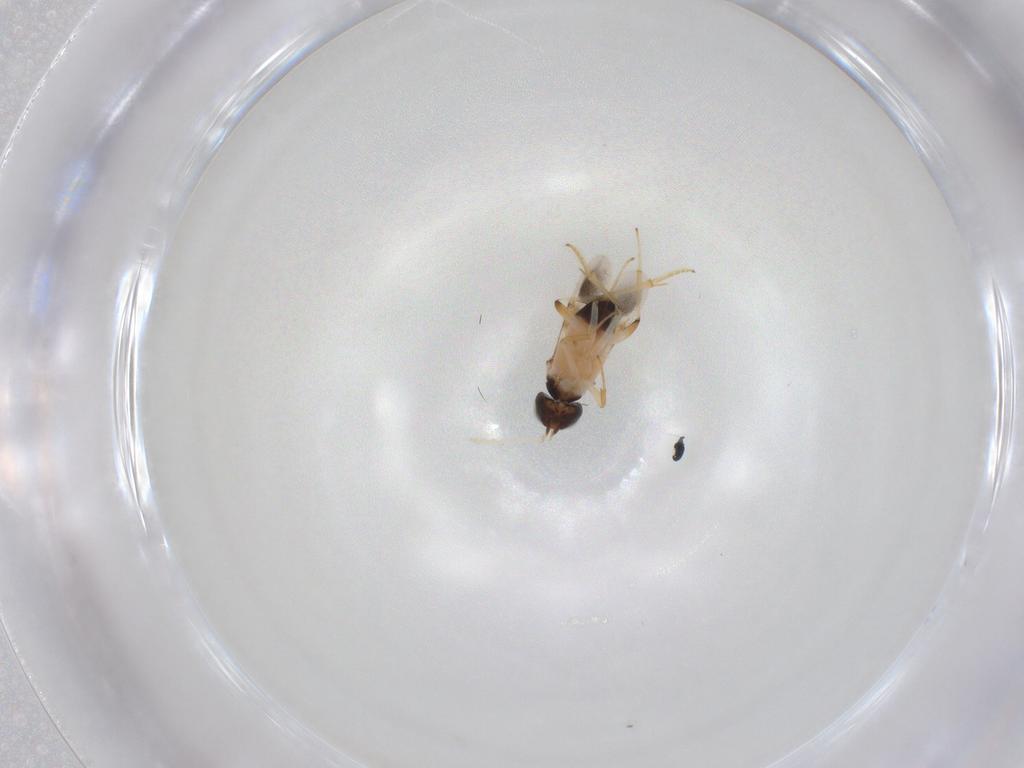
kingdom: Animalia
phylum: Arthropoda
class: Insecta
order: Hymenoptera
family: Encyrtidae
